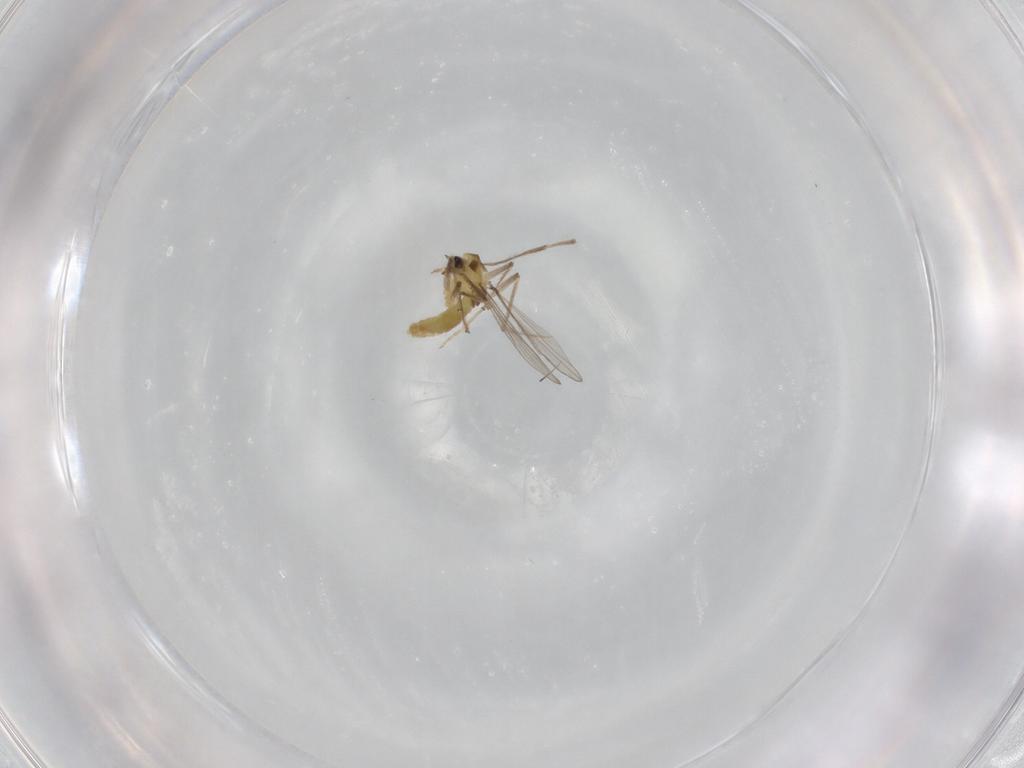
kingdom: Animalia
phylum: Arthropoda
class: Insecta
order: Diptera
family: Chironomidae
